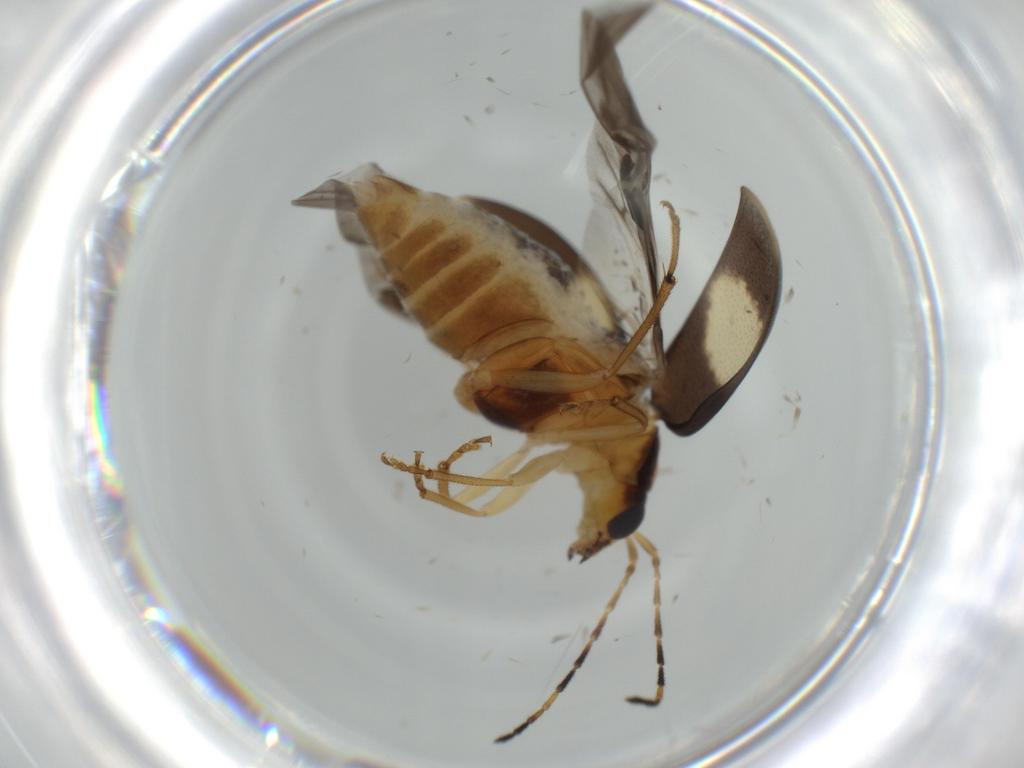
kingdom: Animalia
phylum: Arthropoda
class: Insecta
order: Coleoptera
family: Chrysomelidae
